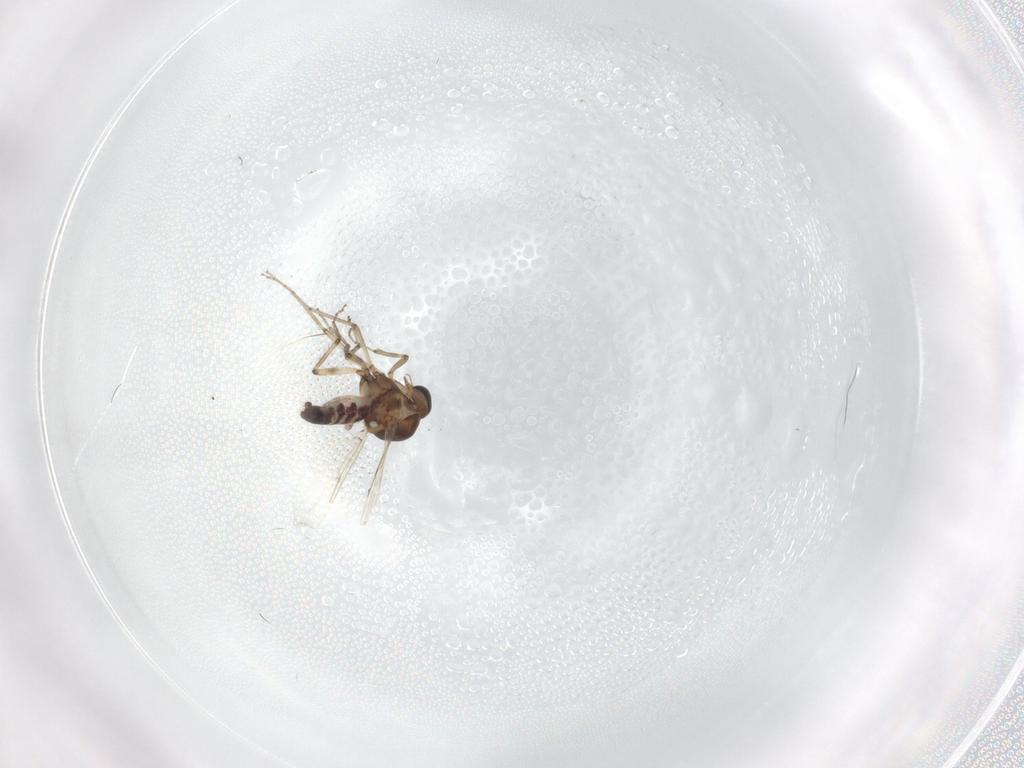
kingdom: Animalia
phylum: Arthropoda
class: Insecta
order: Diptera
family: Ceratopogonidae
